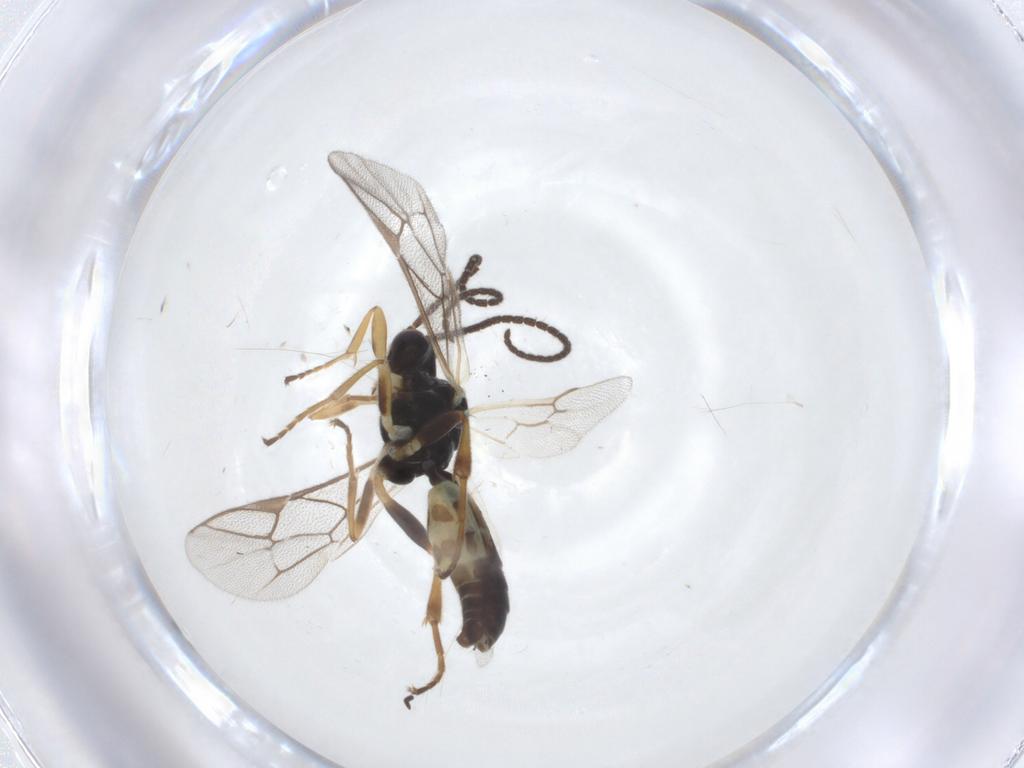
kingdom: Animalia
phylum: Arthropoda
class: Insecta
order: Hymenoptera
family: Ichneumonidae
